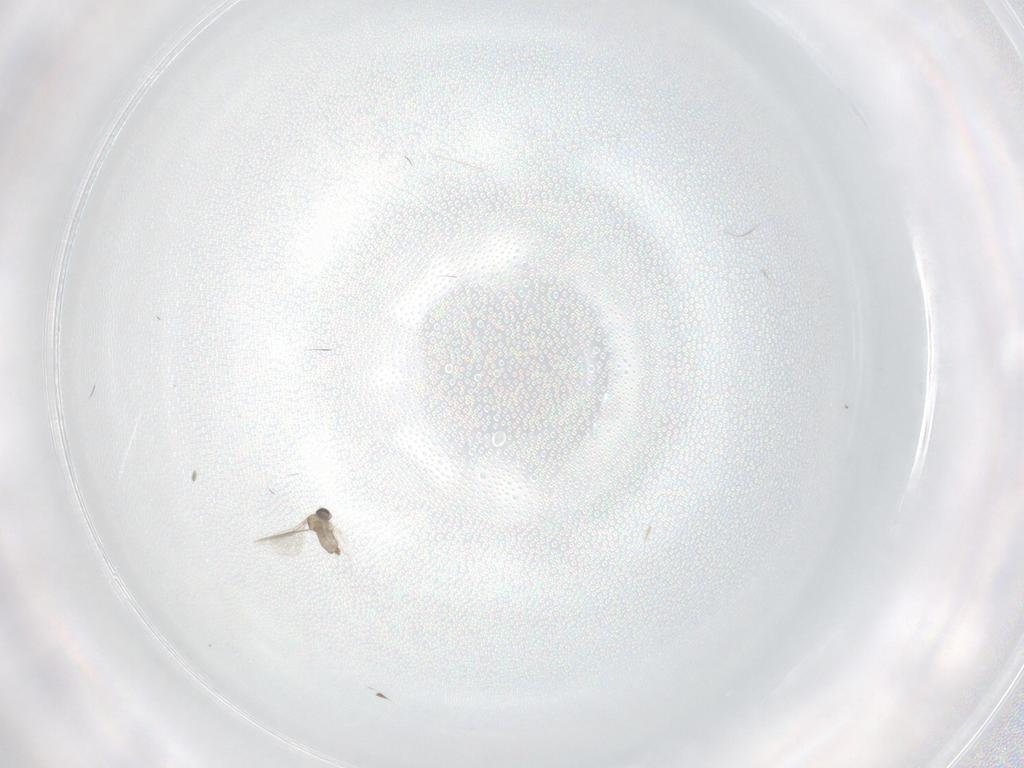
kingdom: Animalia
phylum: Arthropoda
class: Insecta
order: Diptera
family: Cecidomyiidae
